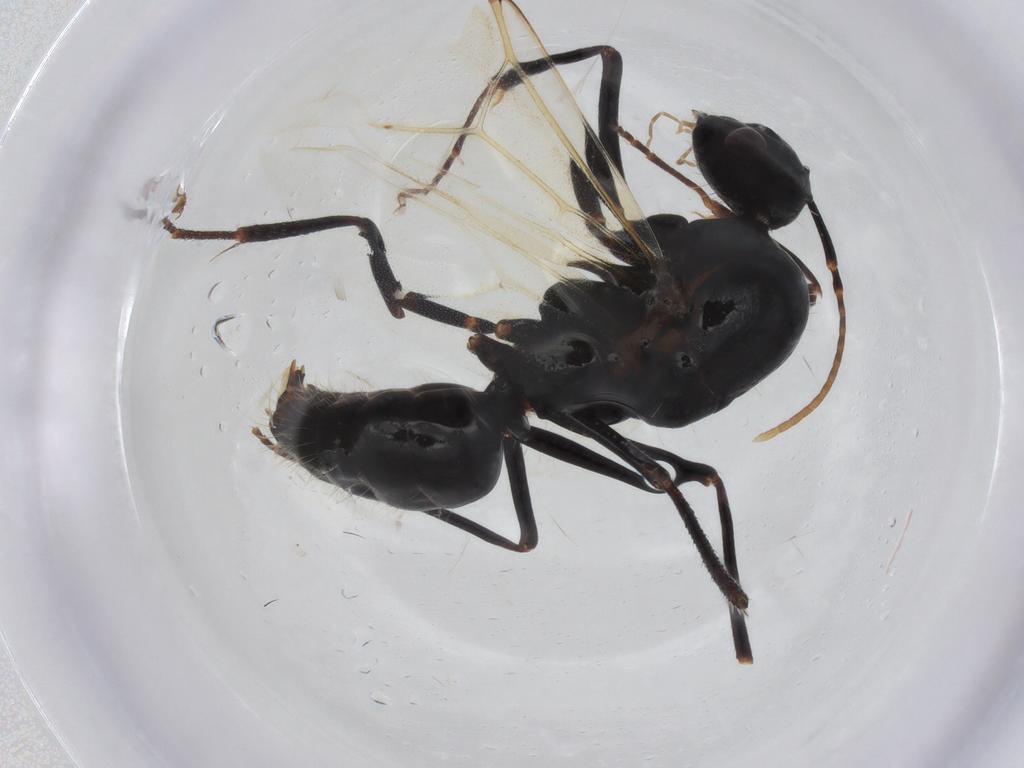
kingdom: Animalia
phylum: Arthropoda
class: Insecta
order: Hymenoptera
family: Formicidae
